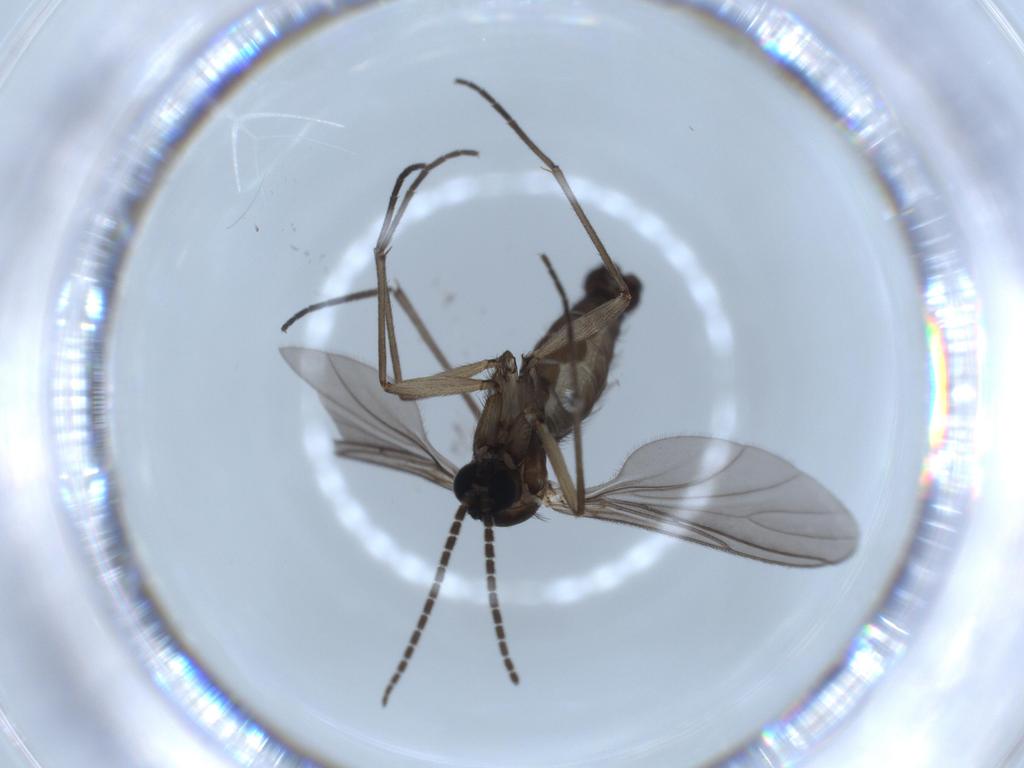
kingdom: Animalia
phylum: Arthropoda
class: Insecta
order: Diptera
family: Sciaridae
